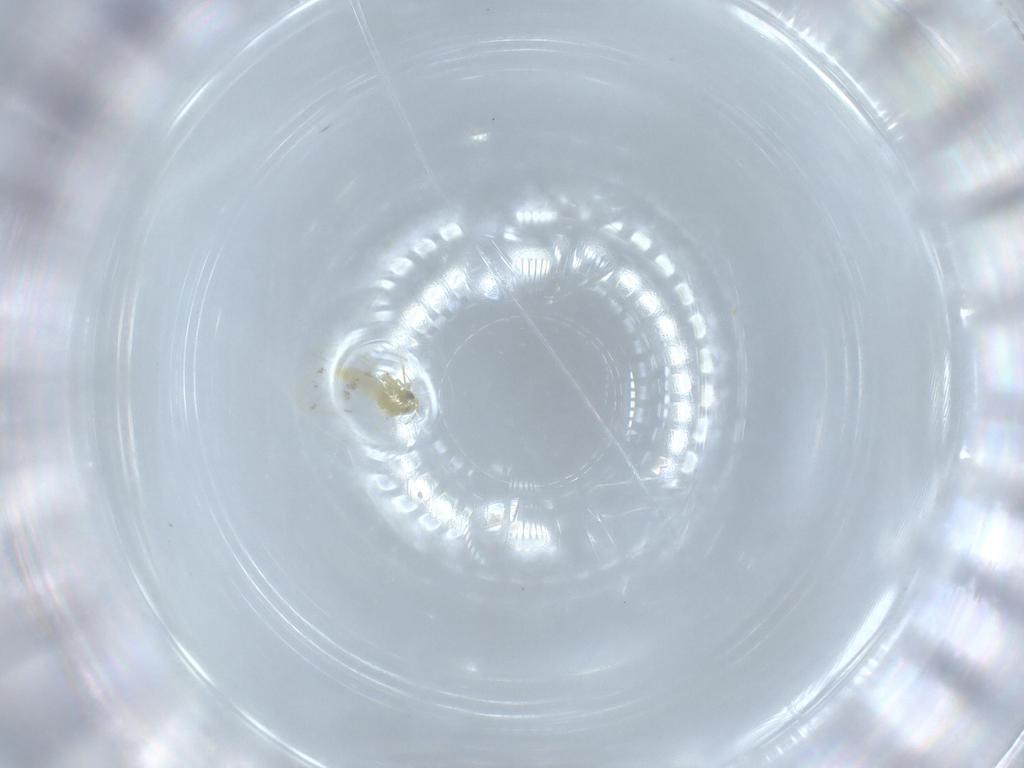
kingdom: Animalia
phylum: Arthropoda
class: Insecta
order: Hemiptera
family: Aleyrodidae
